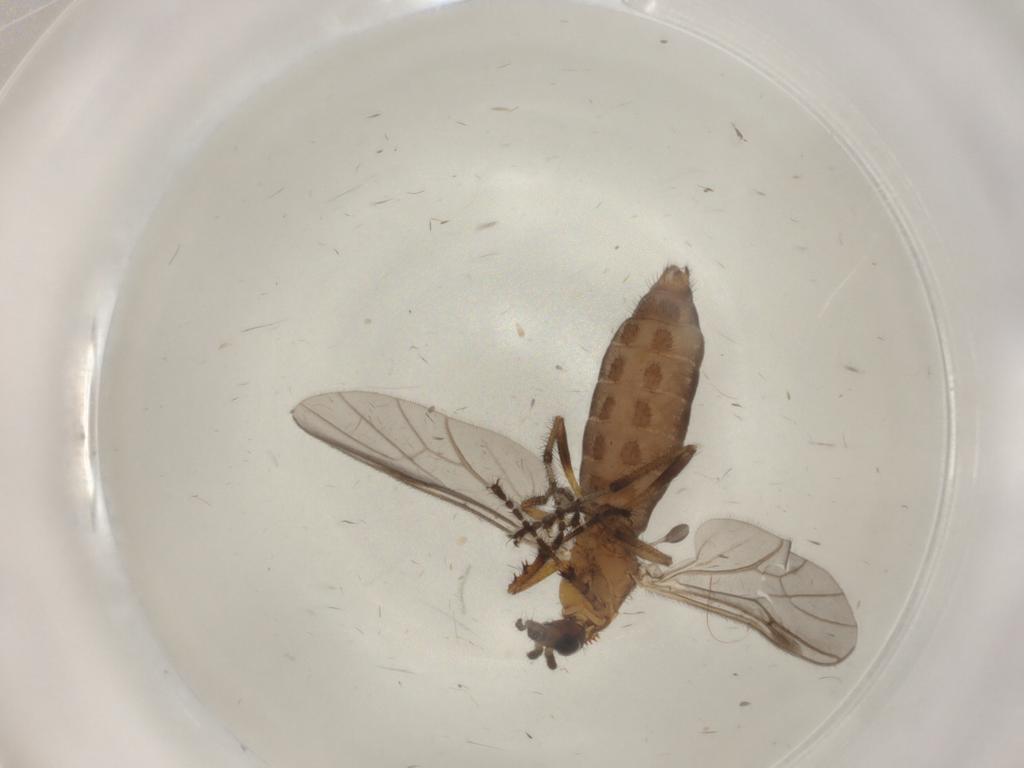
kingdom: Animalia
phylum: Arthropoda
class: Insecta
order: Diptera
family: Bibionidae
